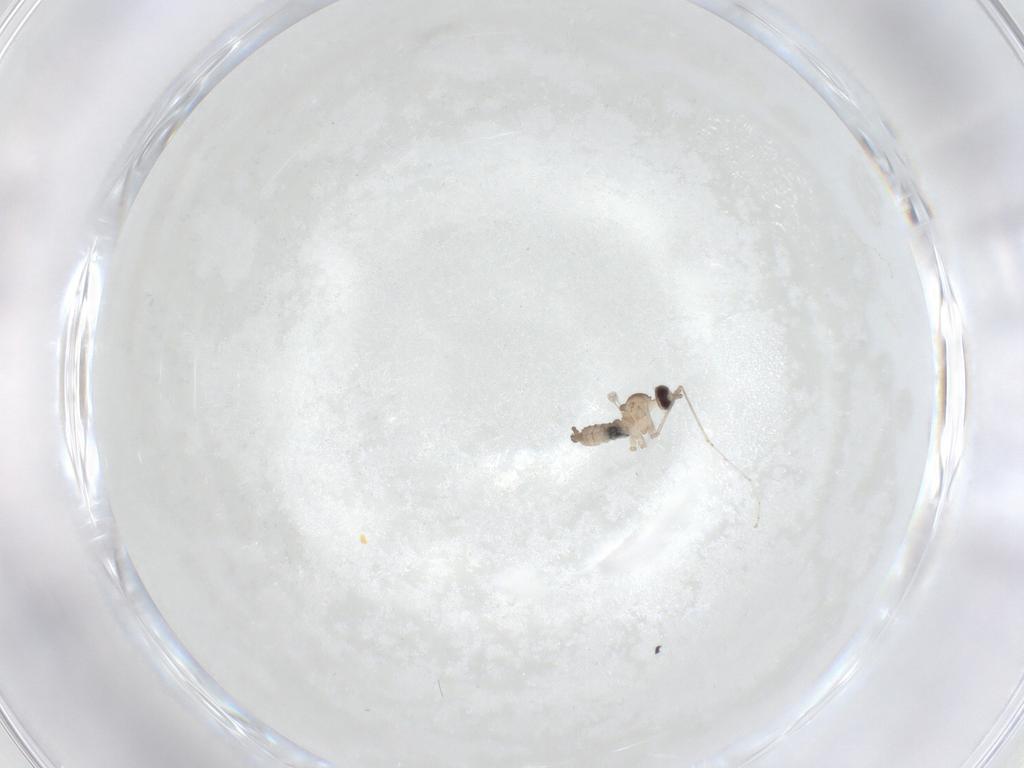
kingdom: Animalia
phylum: Arthropoda
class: Insecta
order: Diptera
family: Cecidomyiidae
